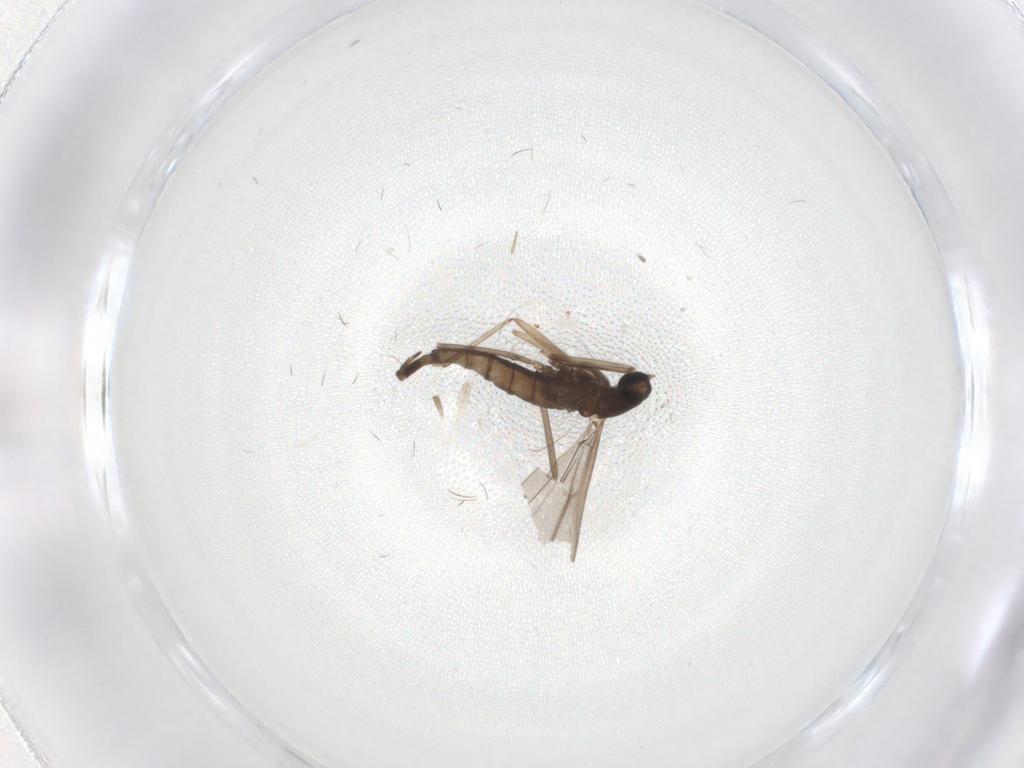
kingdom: Animalia
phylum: Arthropoda
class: Insecta
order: Diptera
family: Cecidomyiidae
